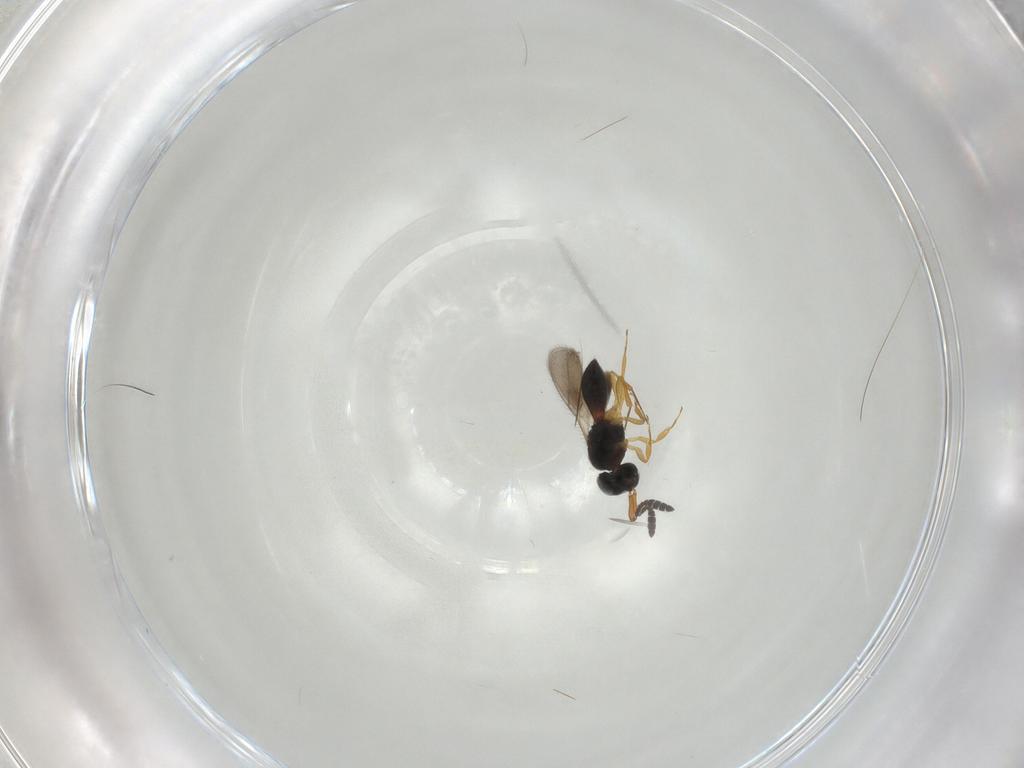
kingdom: Animalia
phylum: Arthropoda
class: Insecta
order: Hymenoptera
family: Scelionidae
